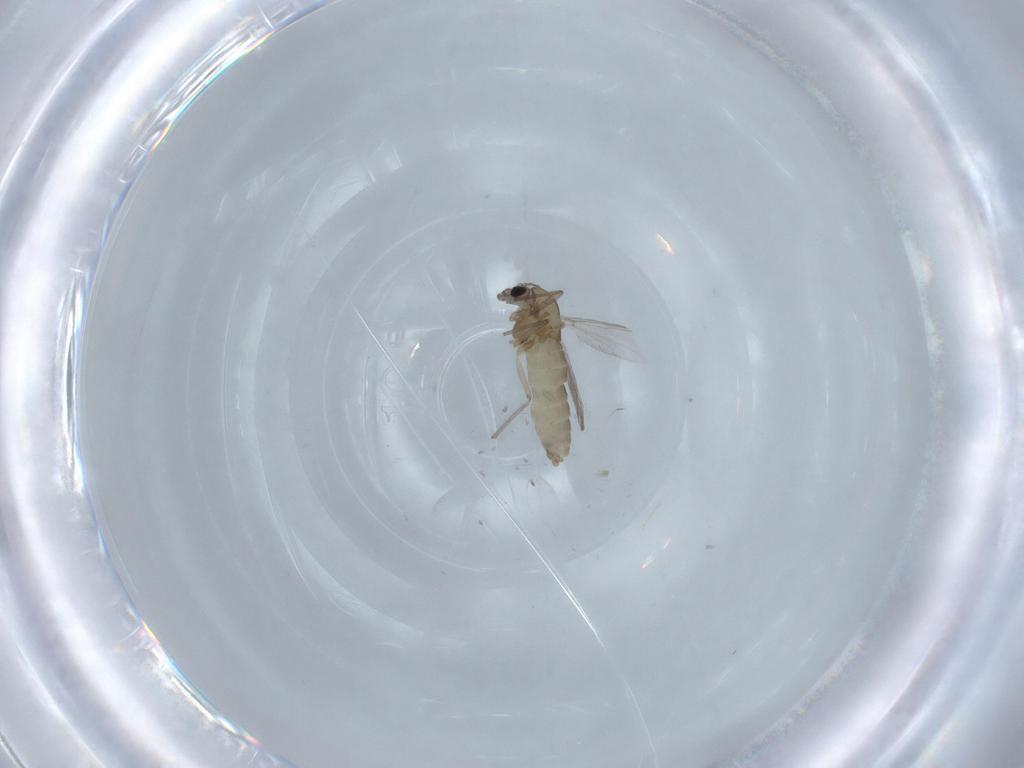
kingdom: Animalia
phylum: Arthropoda
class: Insecta
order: Diptera
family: Chironomidae
